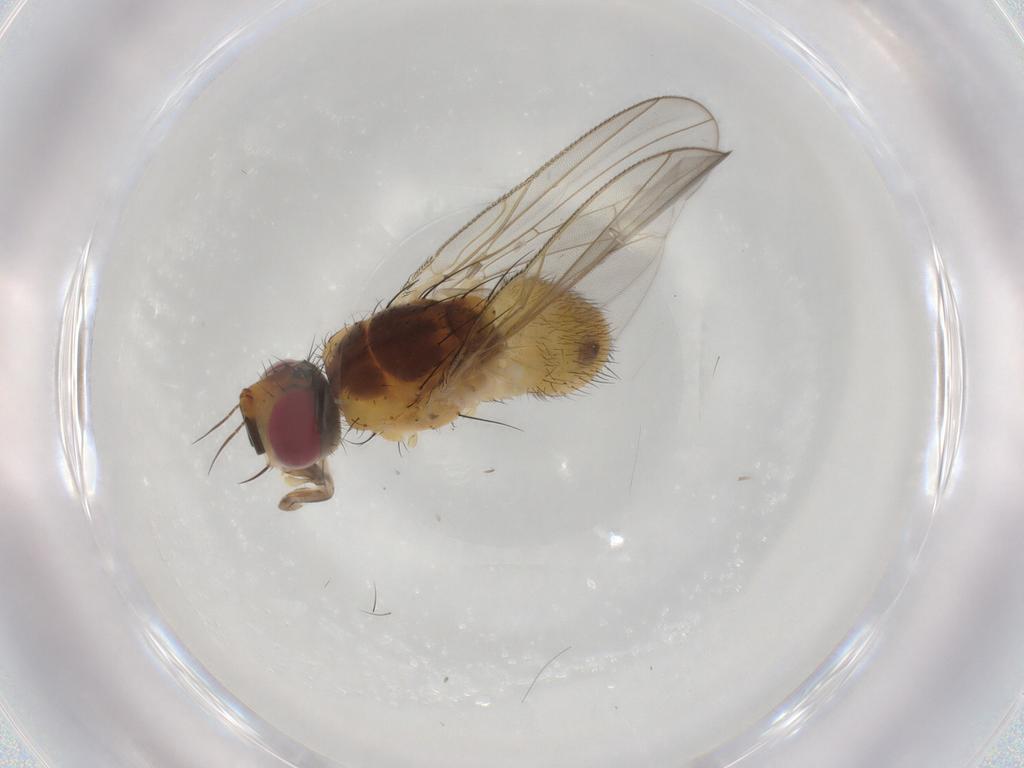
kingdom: Animalia
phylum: Arthropoda
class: Insecta
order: Diptera
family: Muscidae
